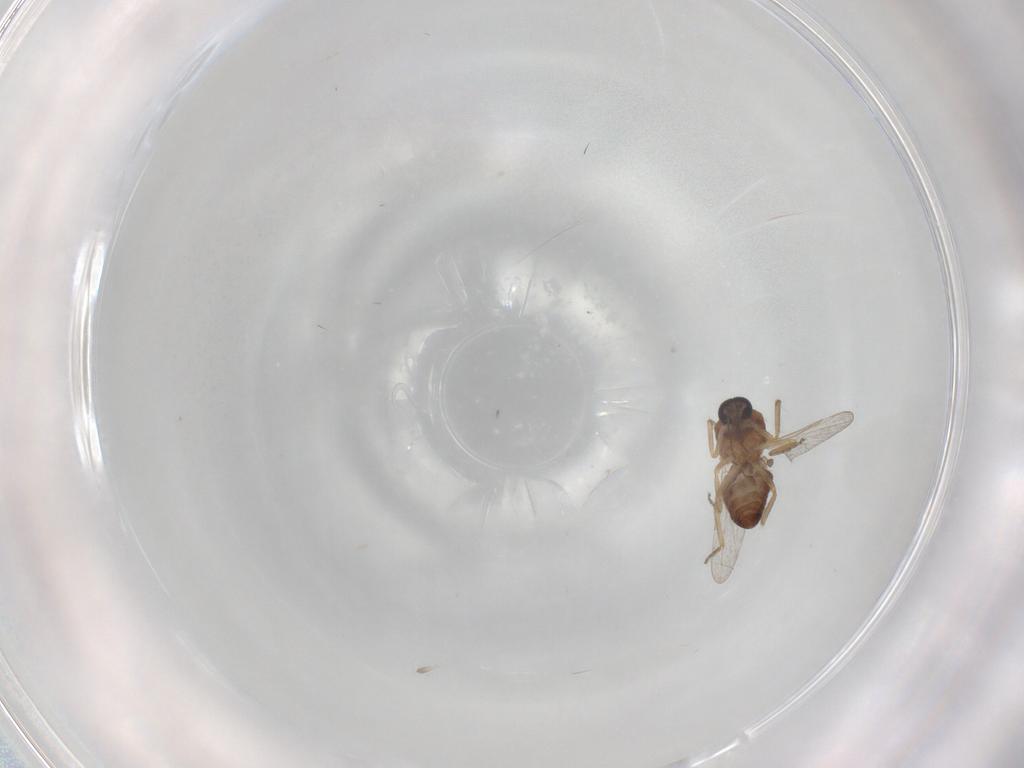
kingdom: Animalia
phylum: Arthropoda
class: Insecta
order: Diptera
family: Ceratopogonidae
